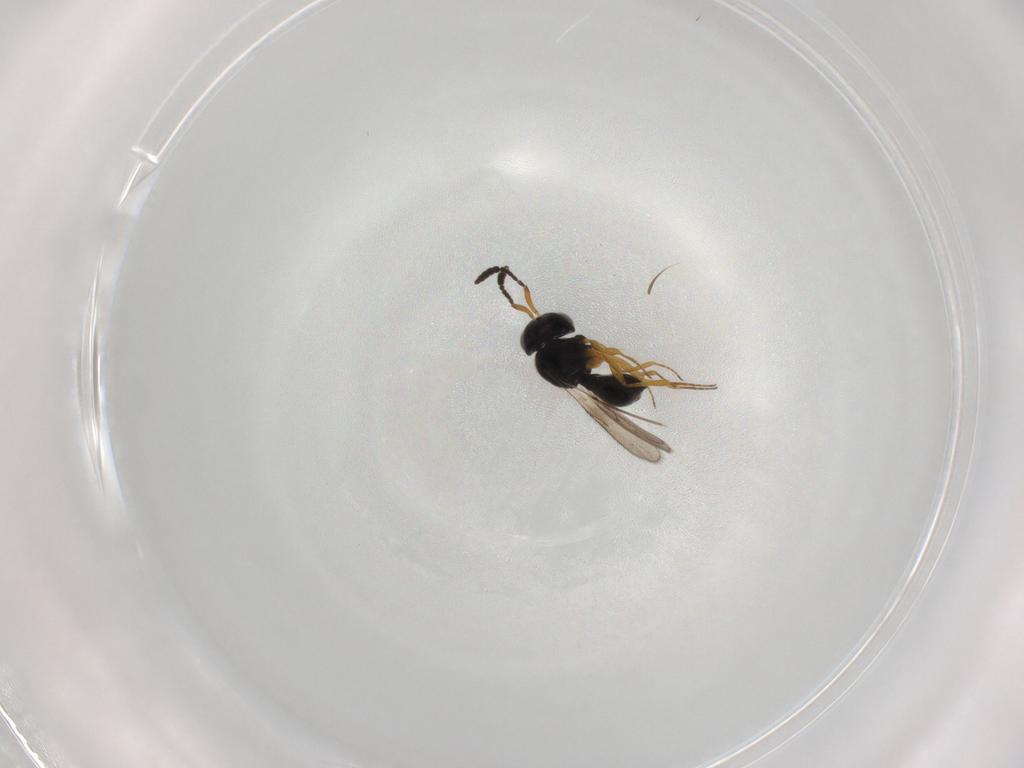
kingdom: Animalia
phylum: Arthropoda
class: Insecta
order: Hymenoptera
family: Scelionidae
